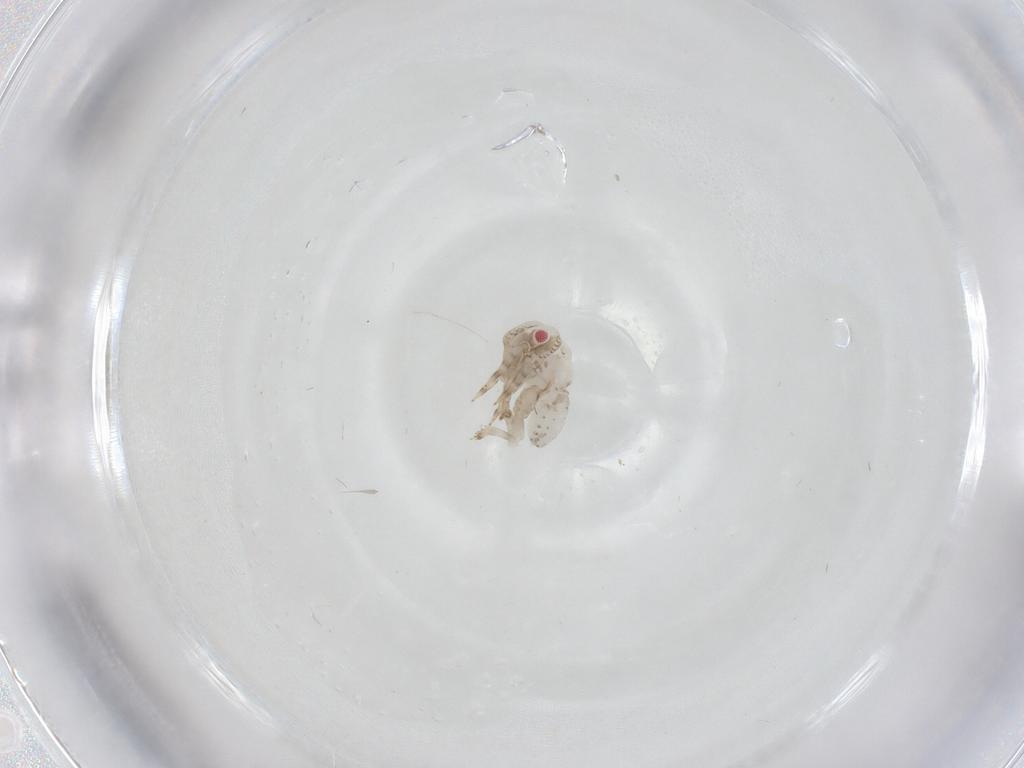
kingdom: Animalia
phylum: Arthropoda
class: Insecta
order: Hemiptera
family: Acanaloniidae
